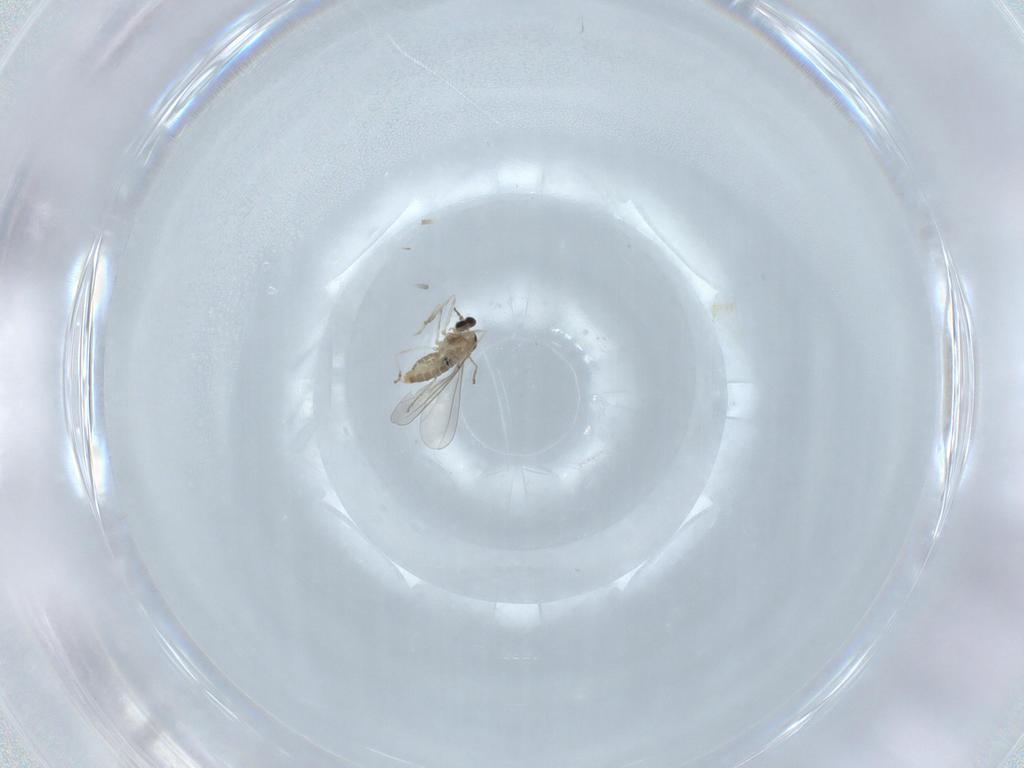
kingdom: Animalia
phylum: Arthropoda
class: Insecta
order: Diptera
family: Cecidomyiidae
